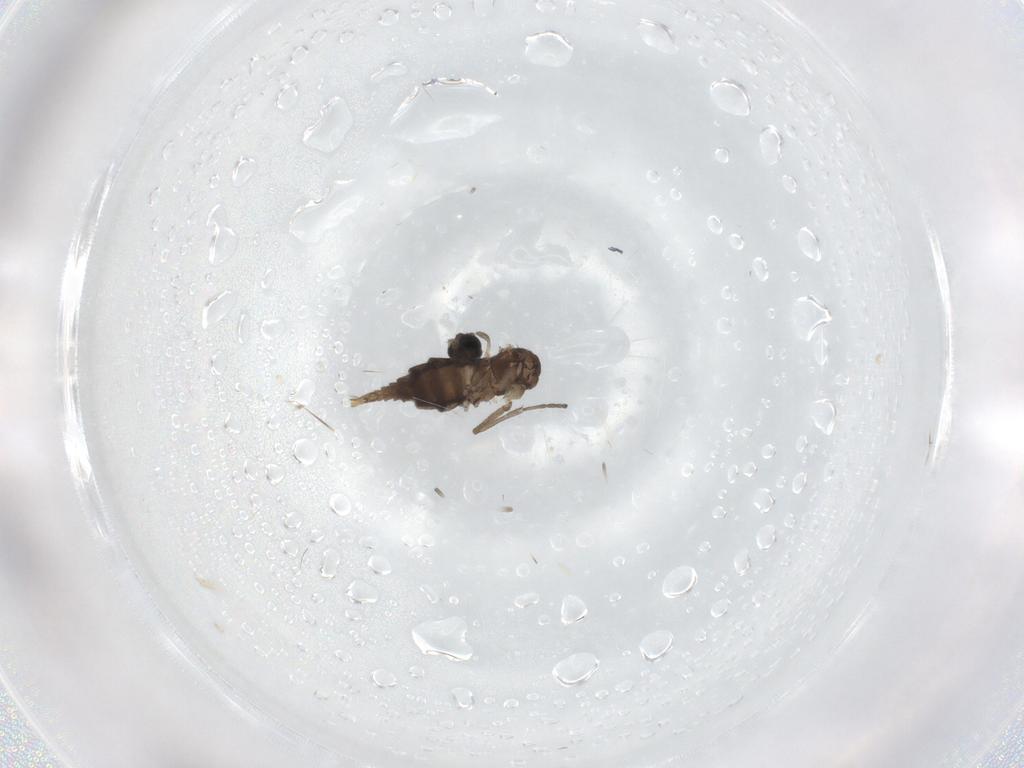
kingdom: Animalia
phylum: Arthropoda
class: Insecta
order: Diptera
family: Sciaridae
